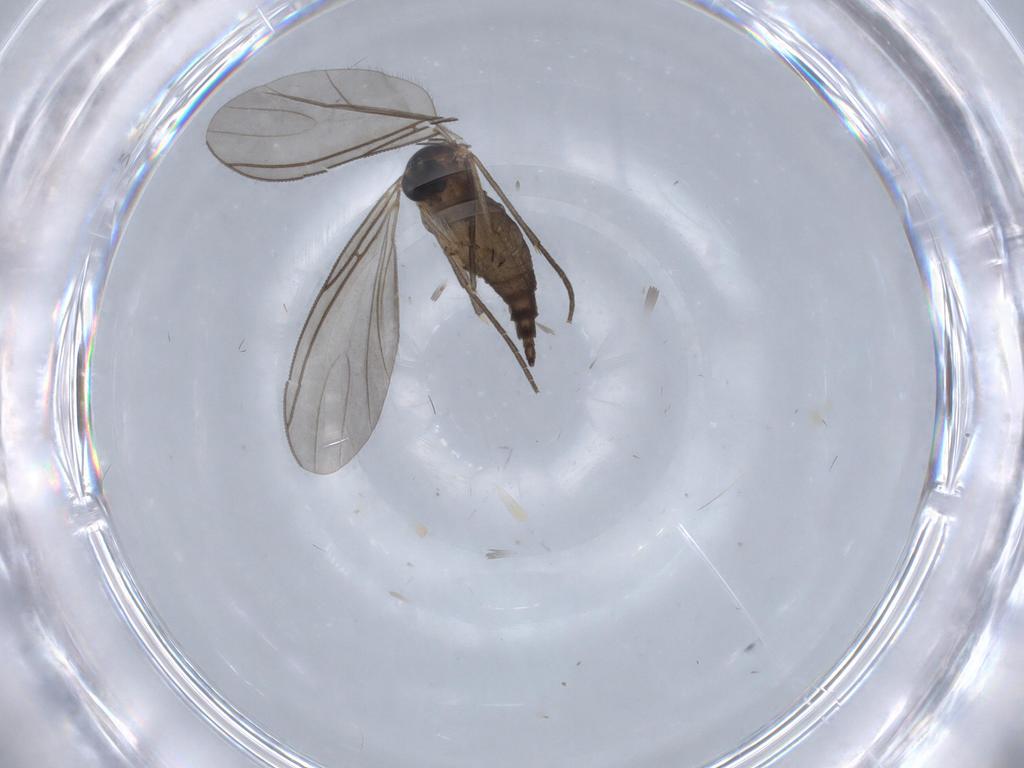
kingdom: Animalia
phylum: Arthropoda
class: Insecta
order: Diptera
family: Sciaridae
